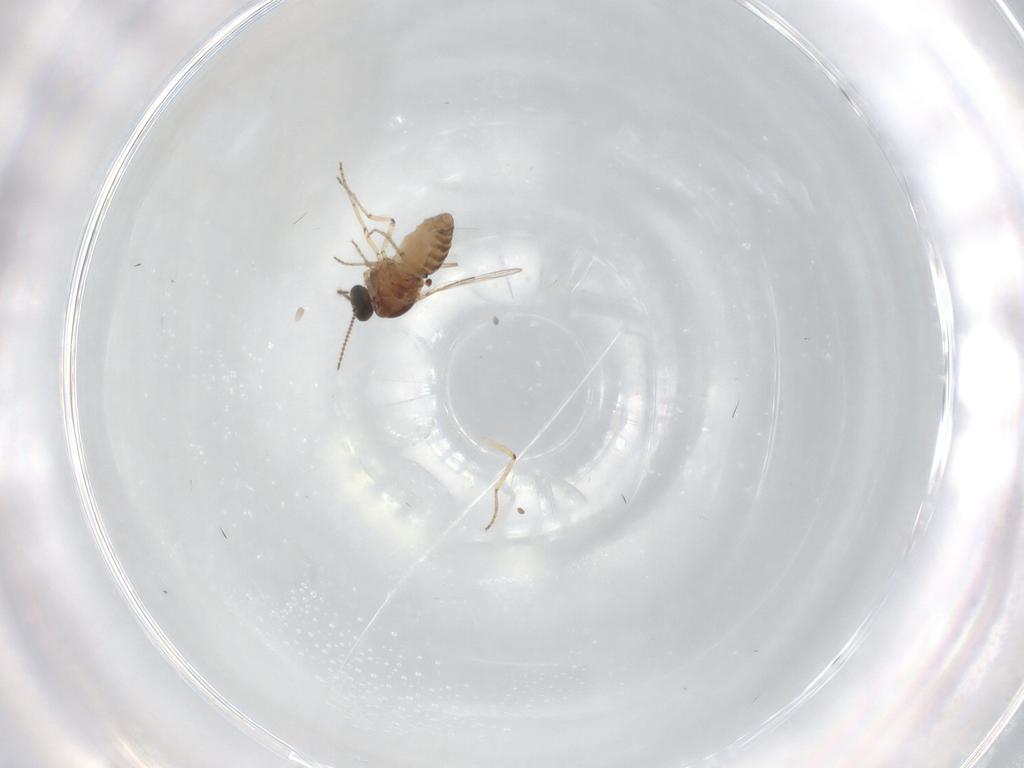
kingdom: Animalia
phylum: Arthropoda
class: Insecta
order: Diptera
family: Ceratopogonidae
